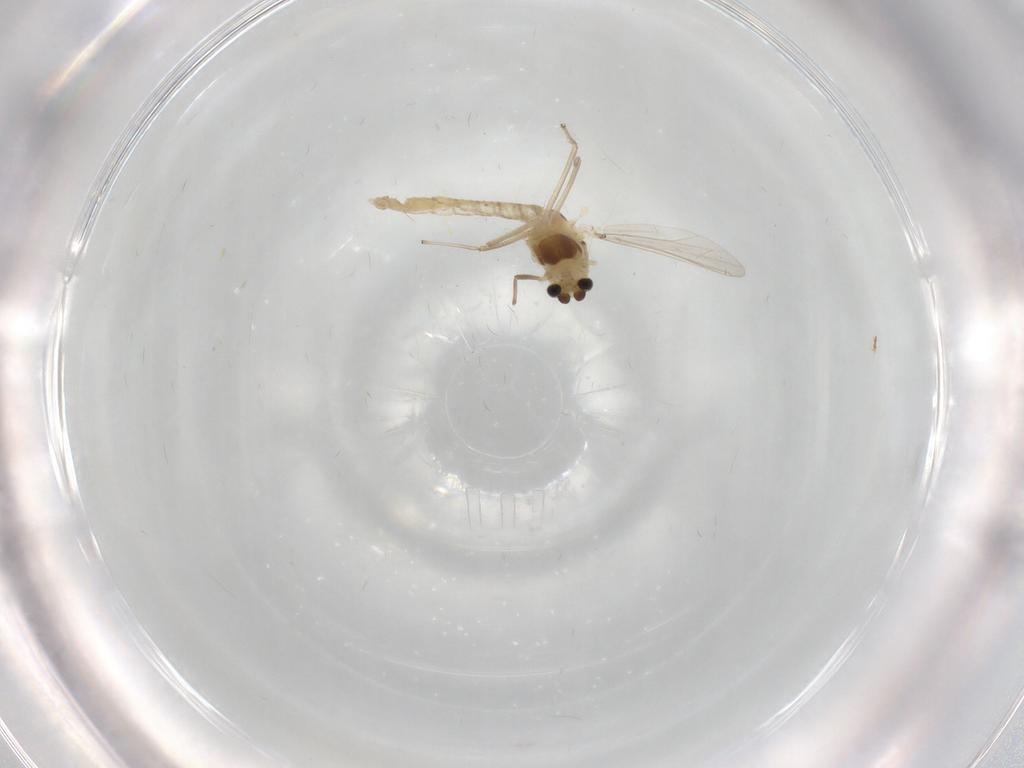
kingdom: Animalia
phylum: Arthropoda
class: Insecta
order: Diptera
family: Chironomidae
